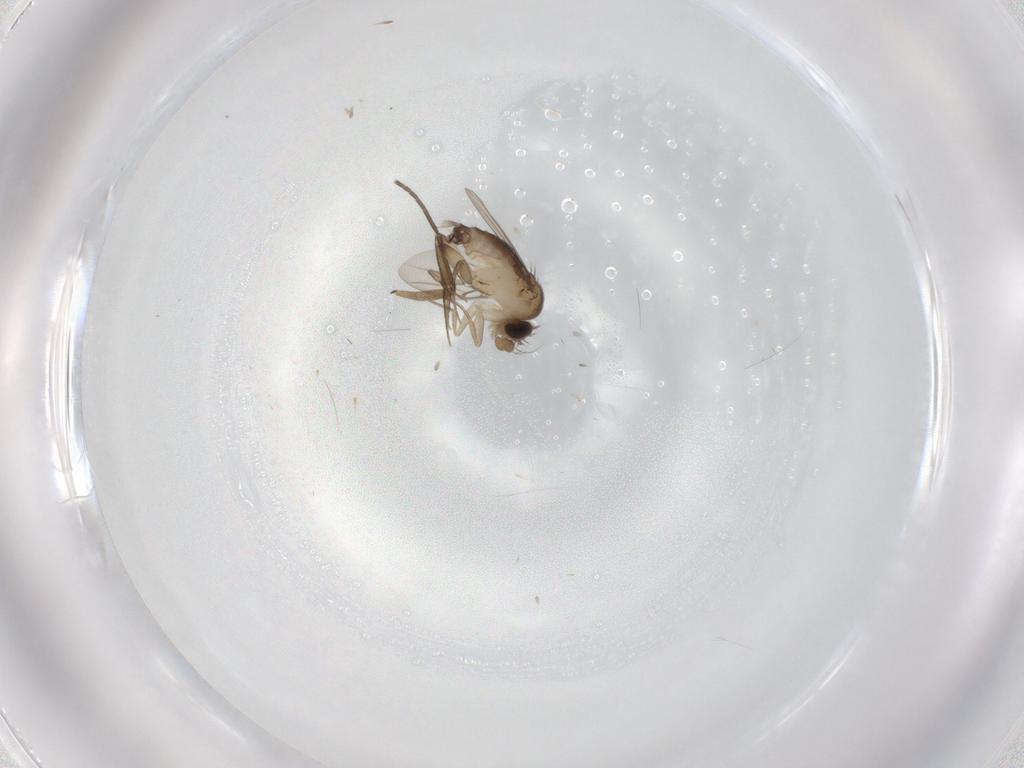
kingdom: Animalia
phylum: Arthropoda
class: Insecta
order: Diptera
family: Phoridae
